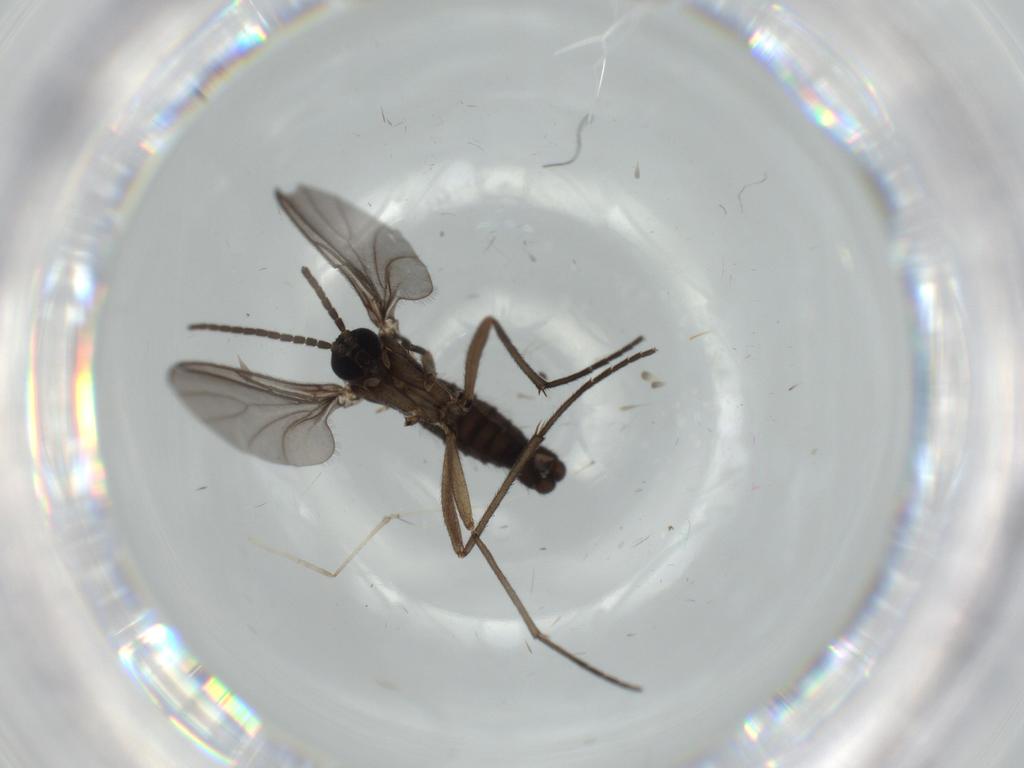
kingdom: Animalia
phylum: Arthropoda
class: Insecta
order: Diptera
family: Sciaridae
